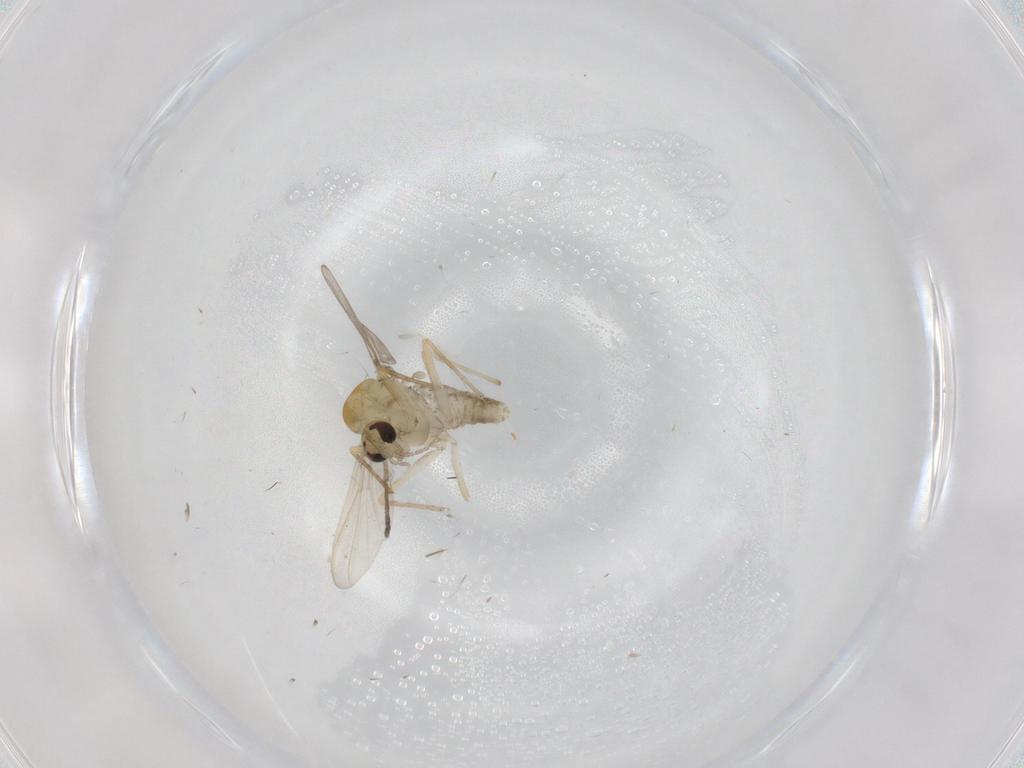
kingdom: Animalia
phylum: Arthropoda
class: Insecta
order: Diptera
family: Chironomidae
